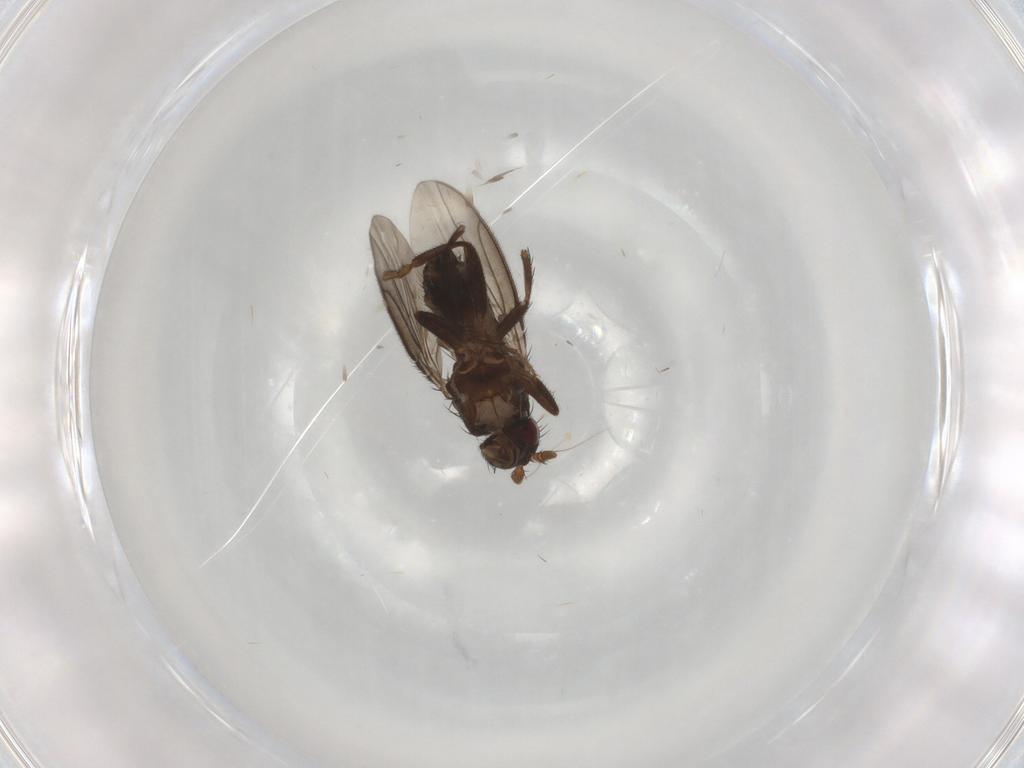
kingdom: Animalia
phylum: Arthropoda
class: Insecta
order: Diptera
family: Sphaeroceridae
